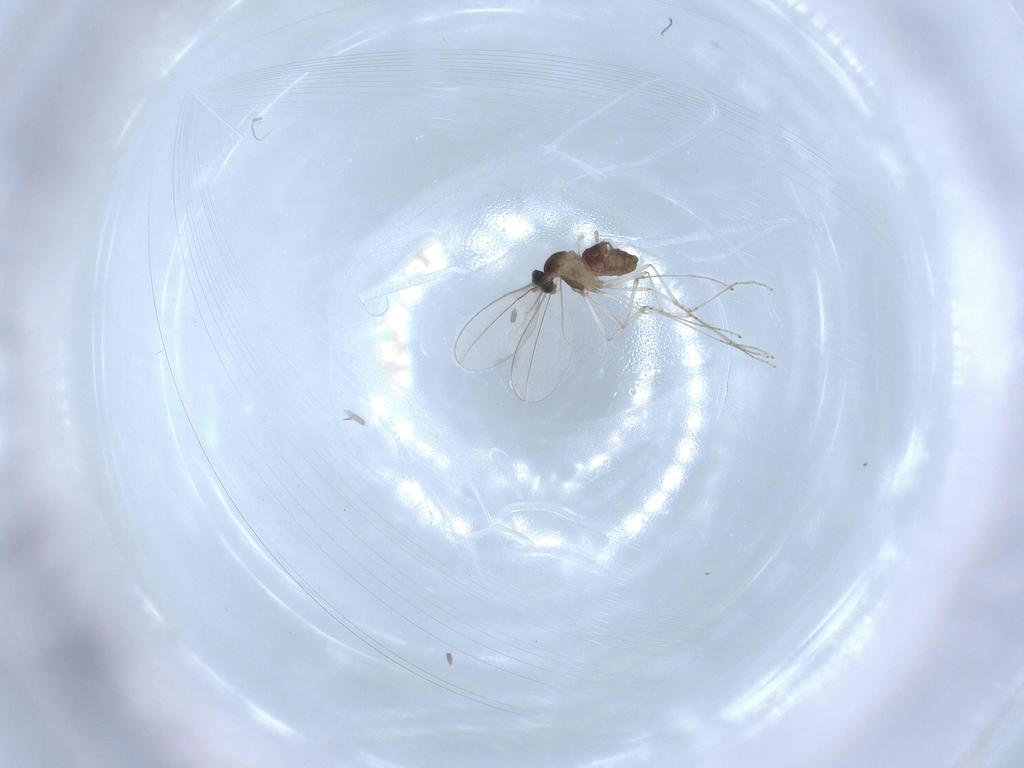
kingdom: Animalia
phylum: Arthropoda
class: Insecta
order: Diptera
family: Cecidomyiidae
